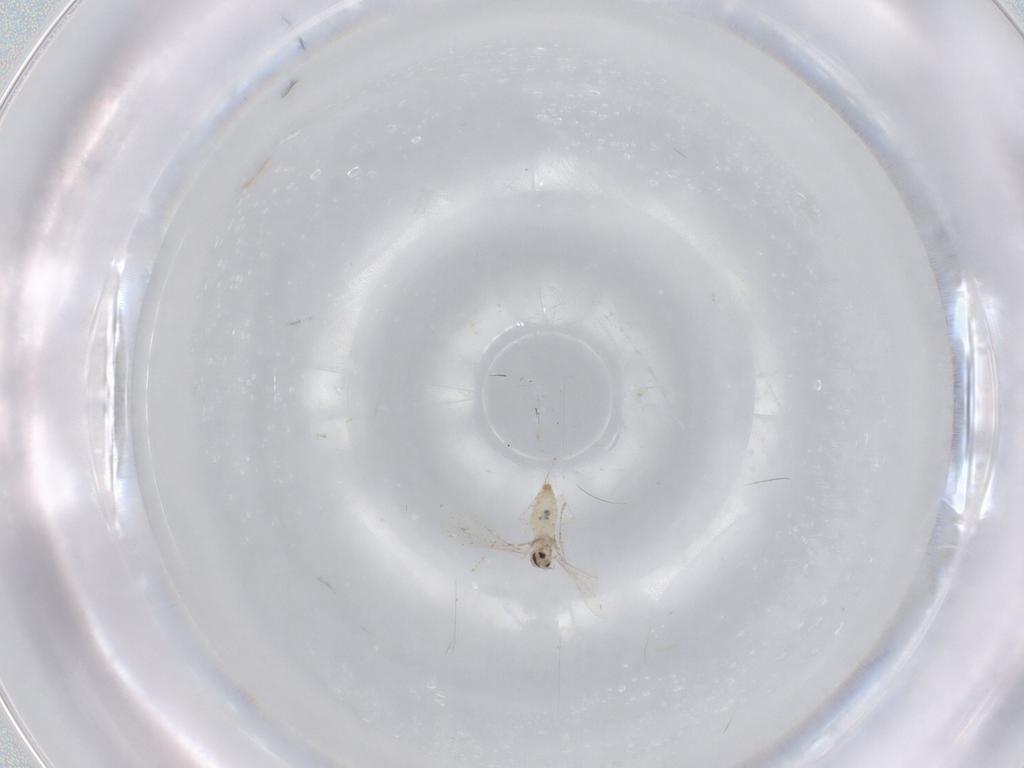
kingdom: Animalia
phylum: Arthropoda
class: Insecta
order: Diptera
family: Cecidomyiidae
